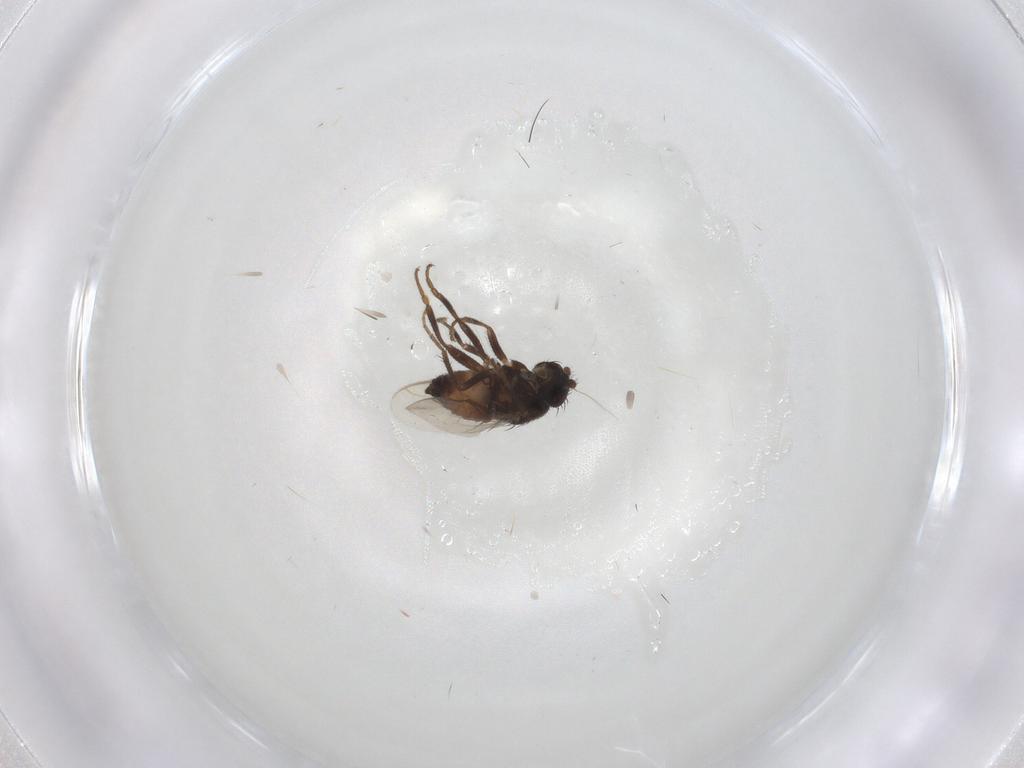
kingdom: Animalia
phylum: Arthropoda
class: Insecta
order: Diptera
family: Sphaeroceridae
